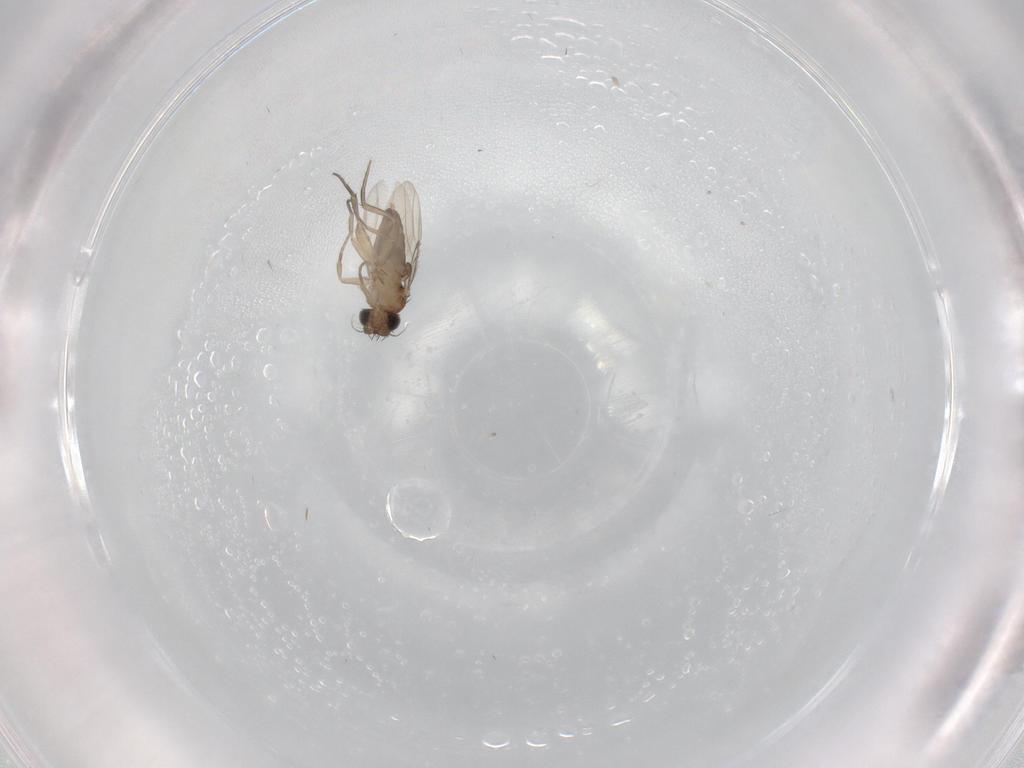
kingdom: Animalia
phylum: Arthropoda
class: Insecta
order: Diptera
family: Phoridae
